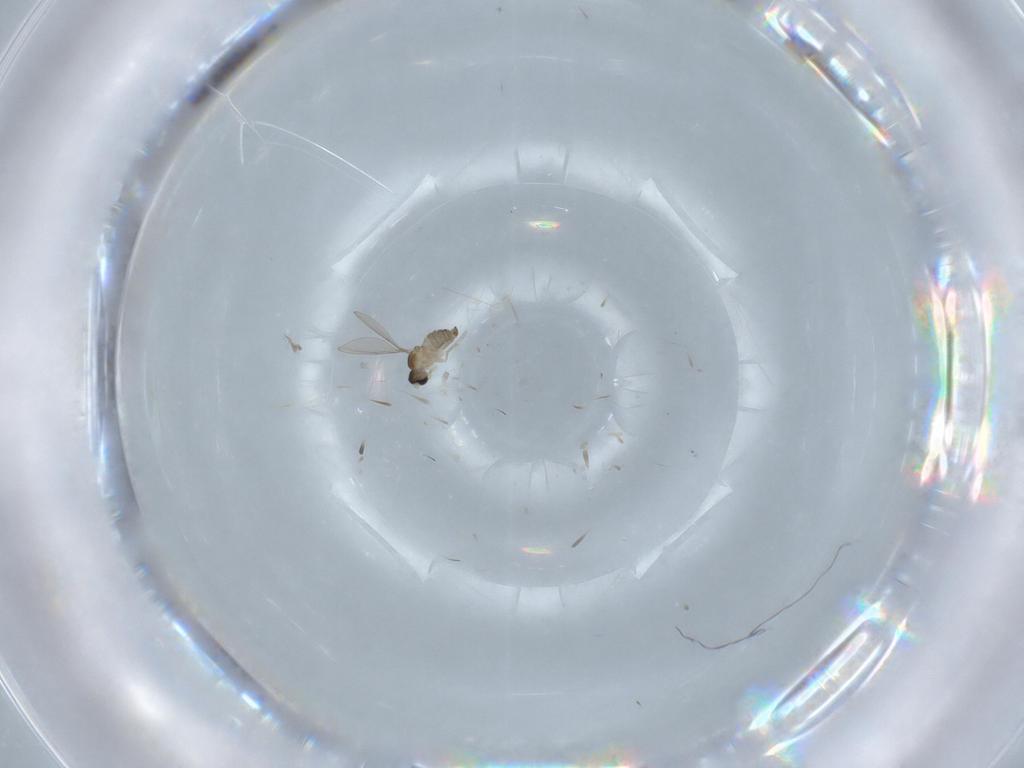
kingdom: Animalia
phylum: Arthropoda
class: Insecta
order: Diptera
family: Cecidomyiidae
